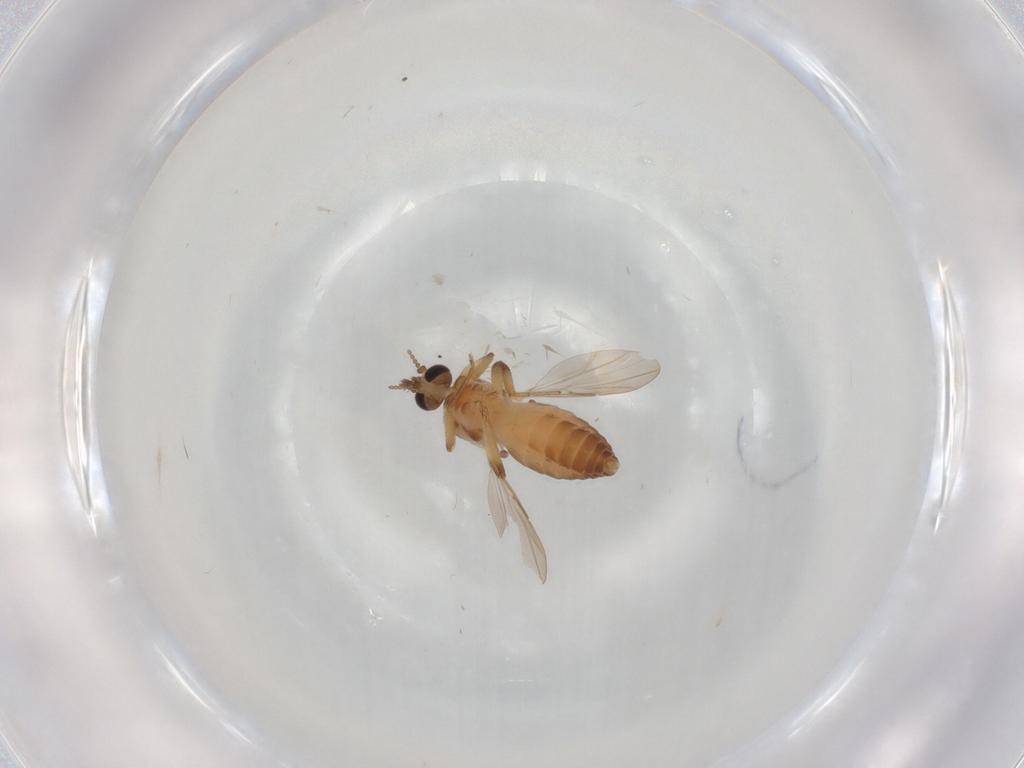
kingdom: Animalia
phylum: Arthropoda
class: Insecta
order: Diptera
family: Ceratopogonidae
